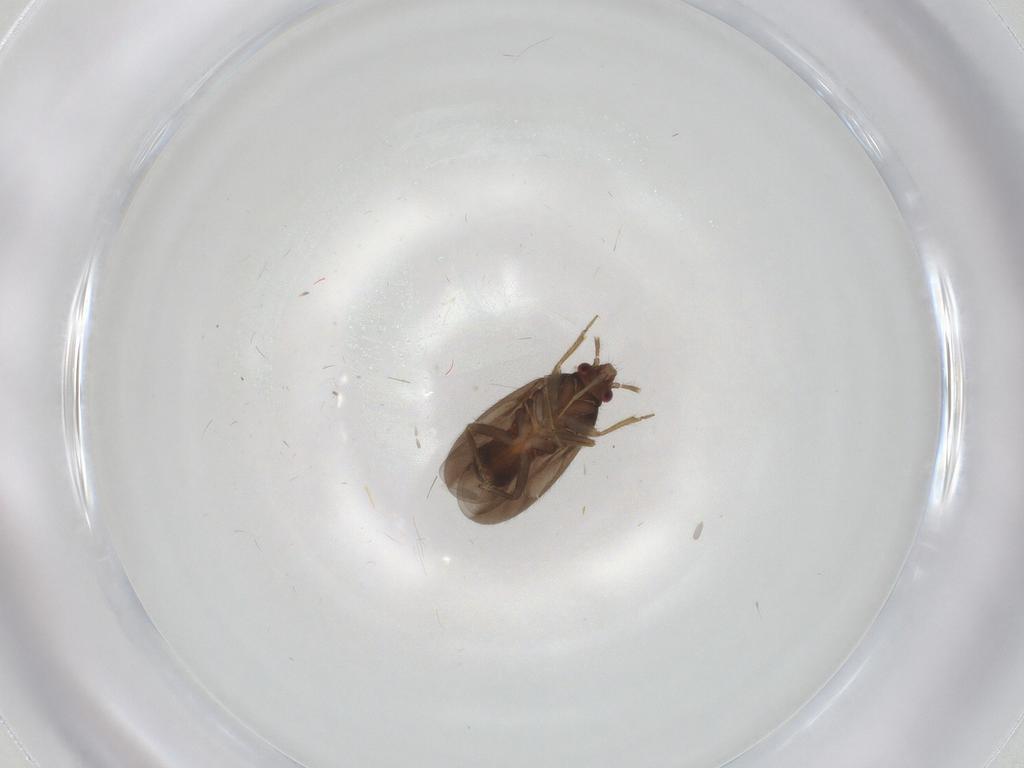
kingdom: Animalia
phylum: Arthropoda
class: Insecta
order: Hemiptera
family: Ceratocombidae
